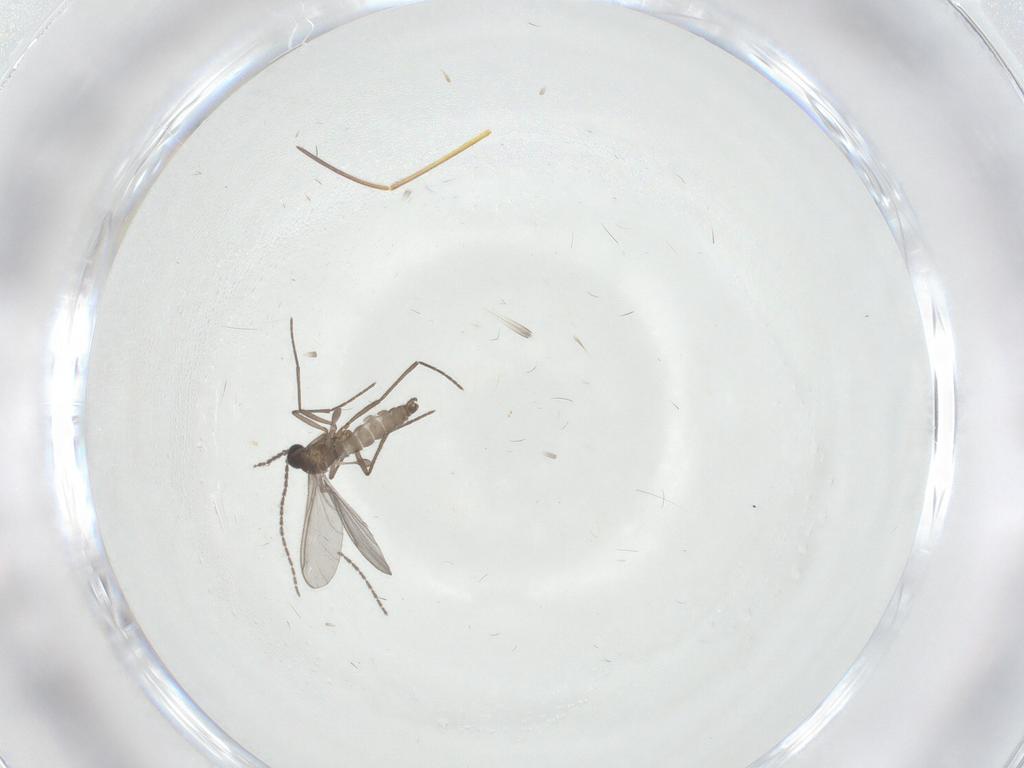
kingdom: Animalia
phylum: Arthropoda
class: Insecta
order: Diptera
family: Sciaridae
